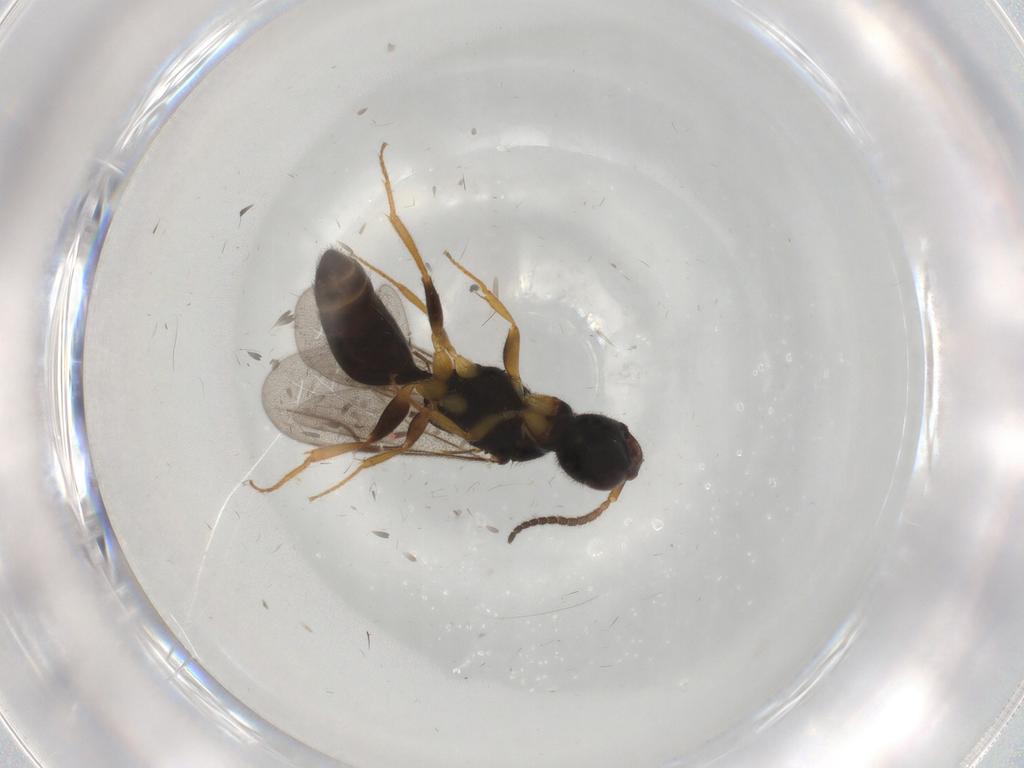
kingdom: Animalia
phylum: Arthropoda
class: Insecta
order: Hymenoptera
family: Bethylidae
